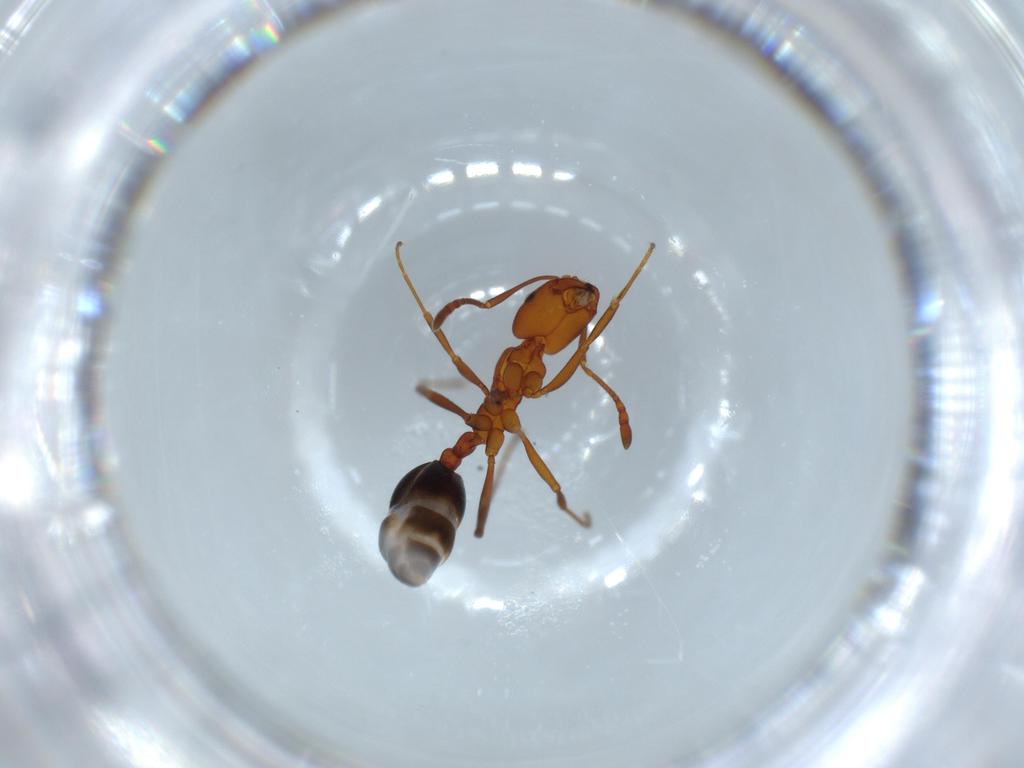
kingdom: Animalia
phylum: Arthropoda
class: Insecta
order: Hymenoptera
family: Formicidae
